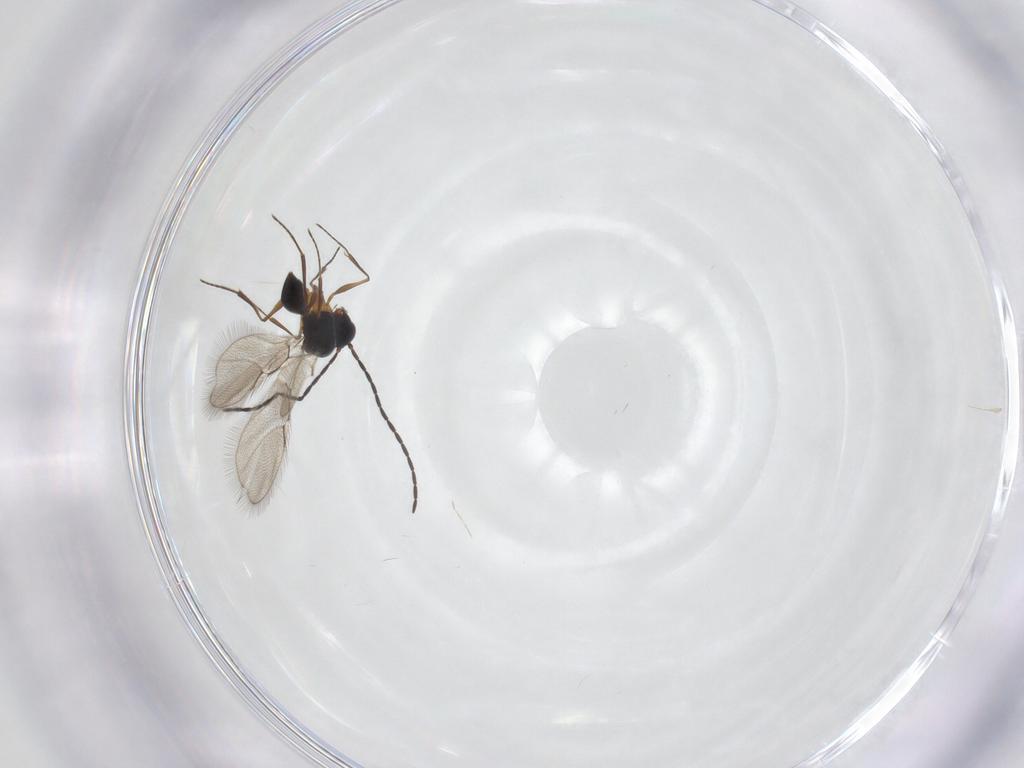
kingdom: Animalia
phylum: Arthropoda
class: Insecta
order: Hymenoptera
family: Figitidae
